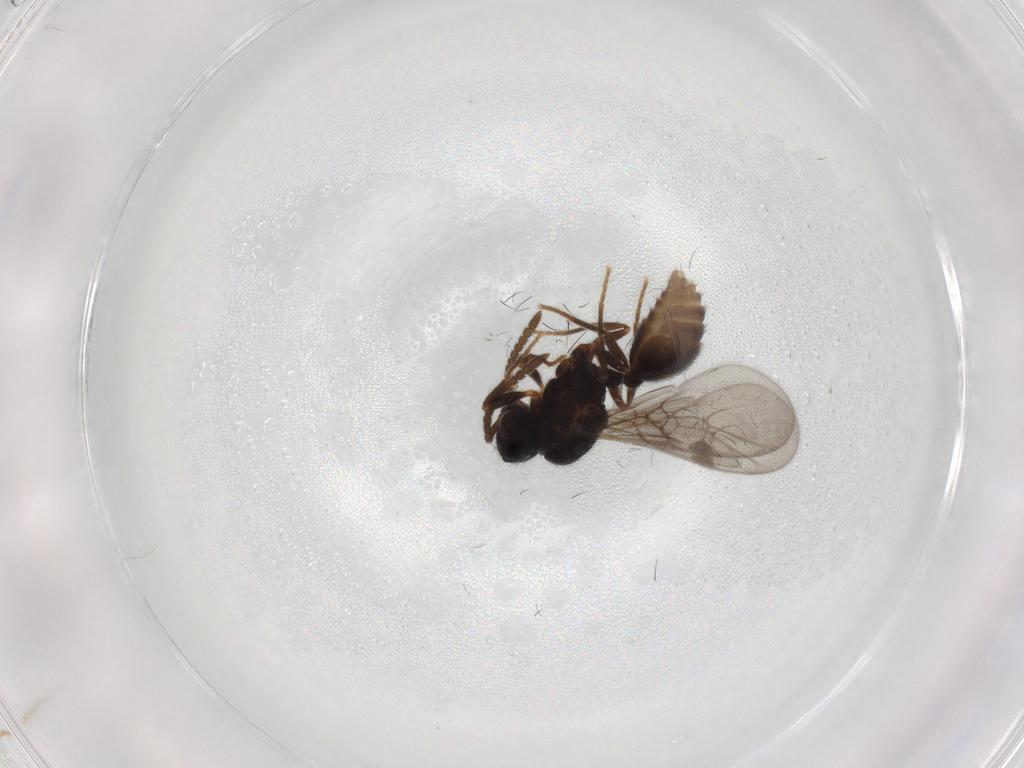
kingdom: Animalia
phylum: Arthropoda
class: Insecta
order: Hymenoptera
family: Formicidae
